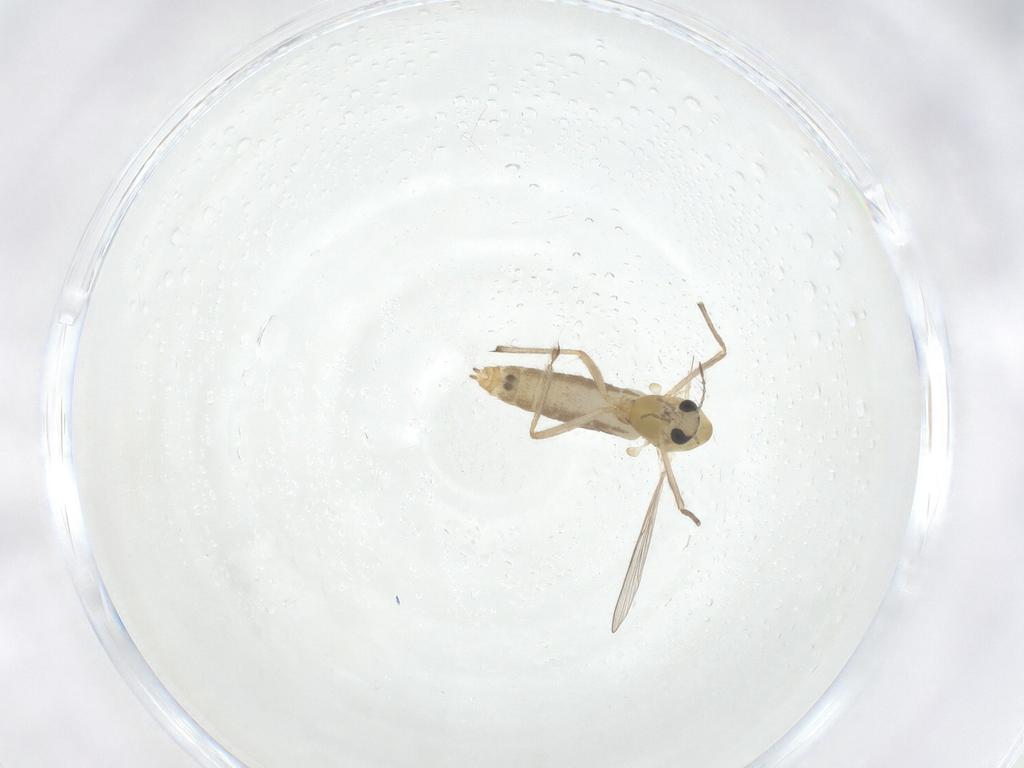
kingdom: Animalia
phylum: Arthropoda
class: Insecta
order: Diptera
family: Chironomidae
